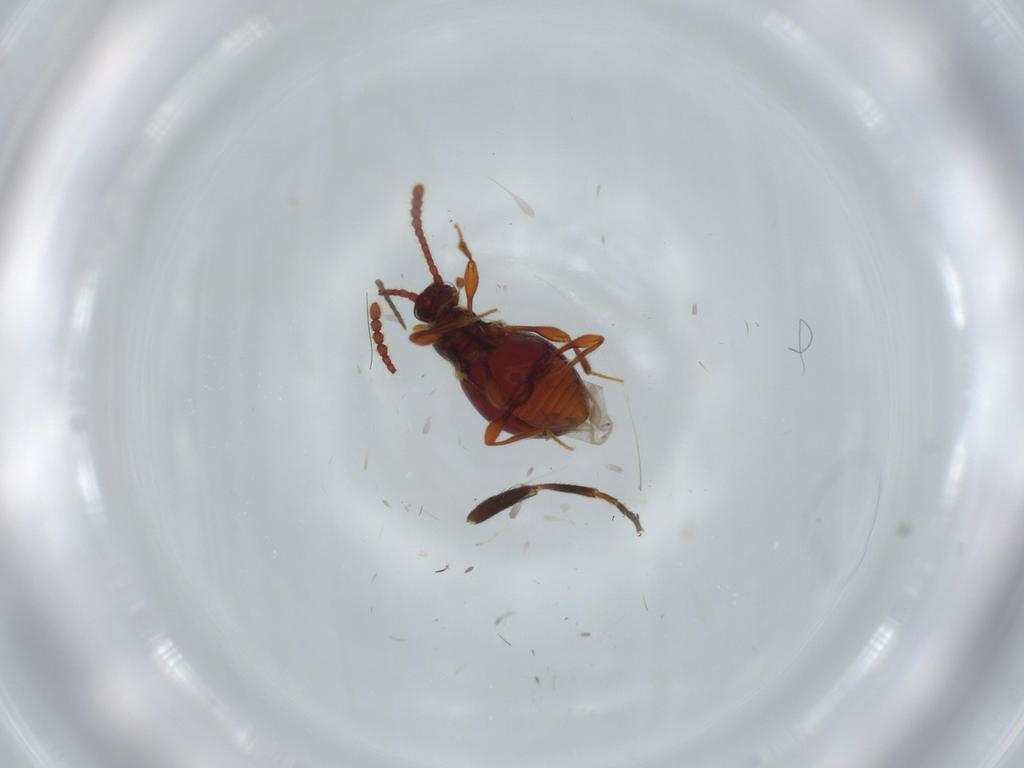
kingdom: Animalia
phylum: Arthropoda
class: Insecta
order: Coleoptera
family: Staphylinidae
